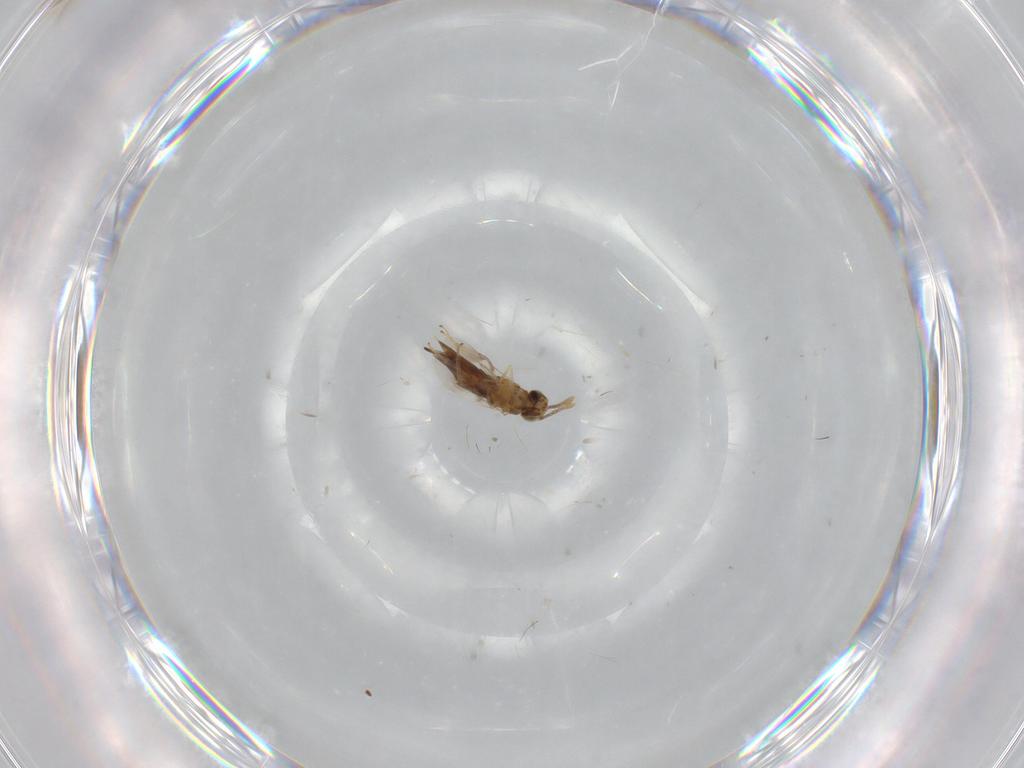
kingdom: Animalia
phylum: Arthropoda
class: Insecta
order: Hymenoptera
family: Encyrtidae
